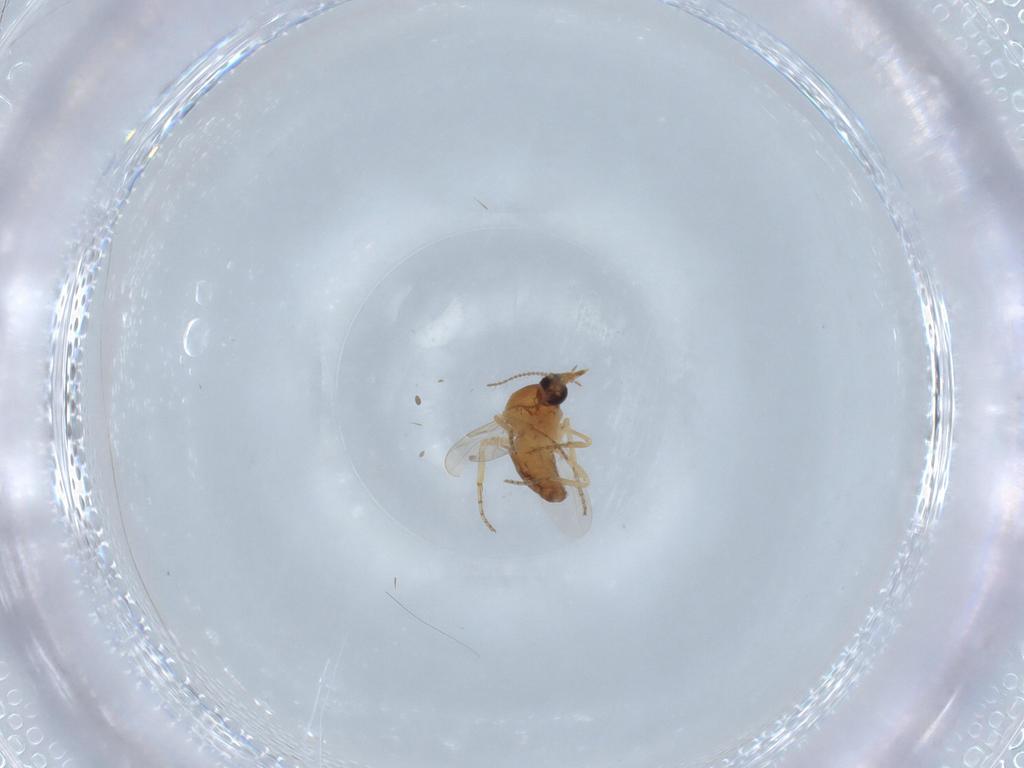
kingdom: Animalia
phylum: Arthropoda
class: Insecta
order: Diptera
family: Ceratopogonidae
